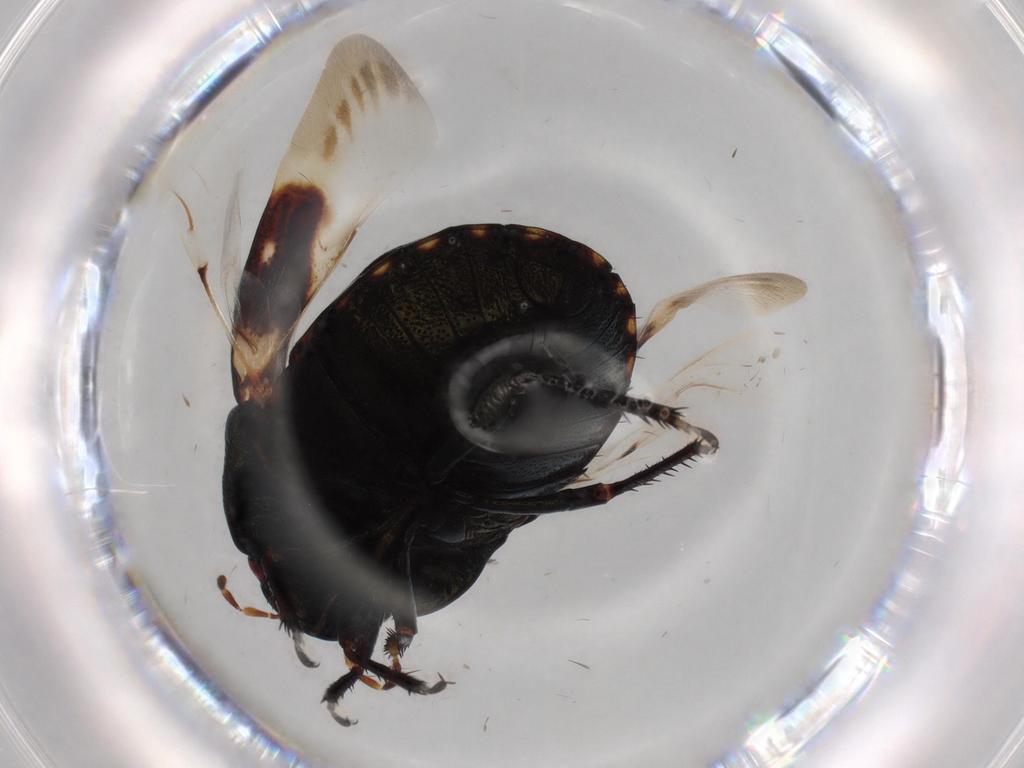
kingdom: Animalia
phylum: Arthropoda
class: Insecta
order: Hemiptera
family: Thyreocoridae
